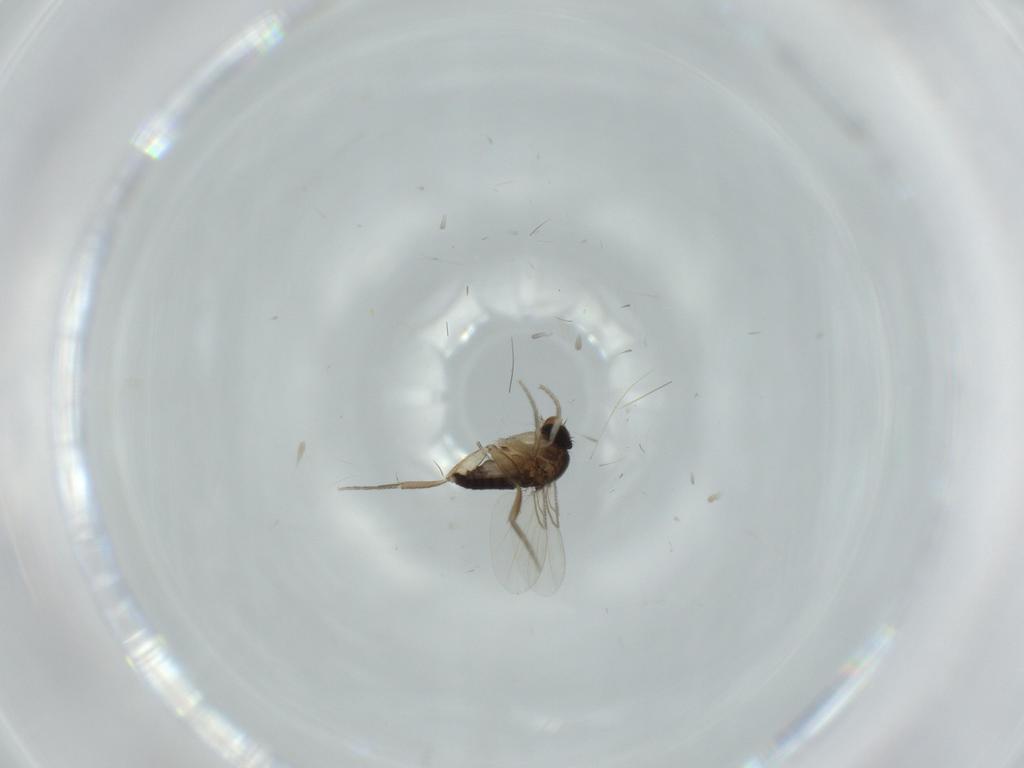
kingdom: Animalia
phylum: Arthropoda
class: Insecta
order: Diptera
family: Phoridae
